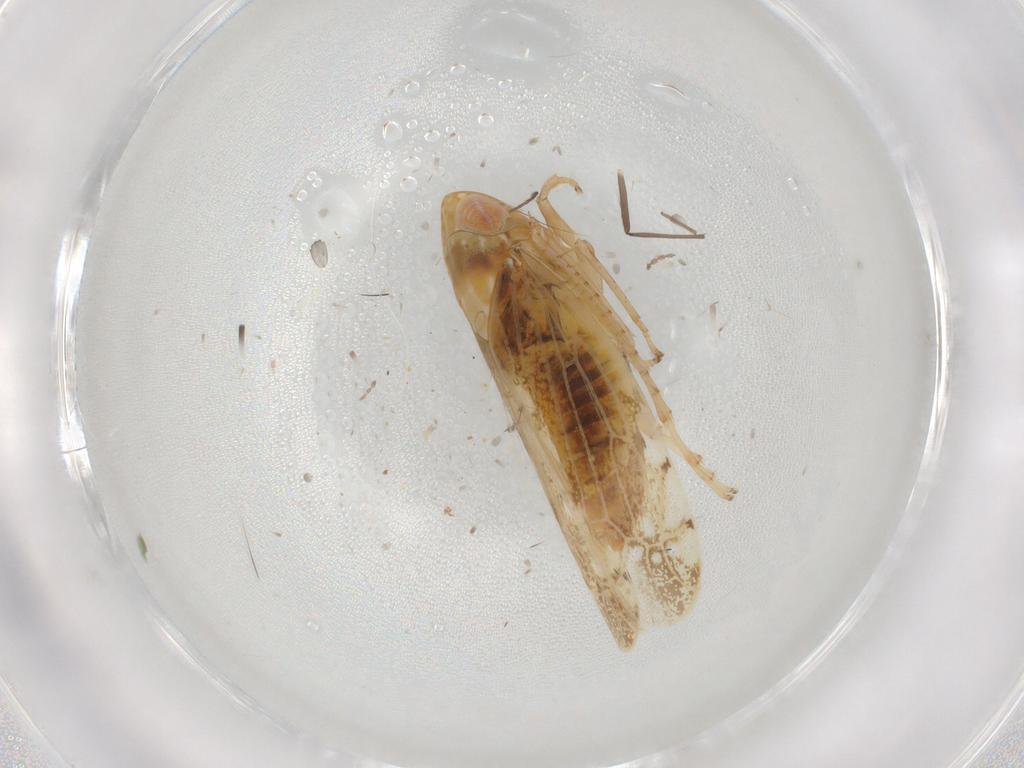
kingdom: Animalia
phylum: Arthropoda
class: Insecta
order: Hemiptera
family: Cicadellidae
